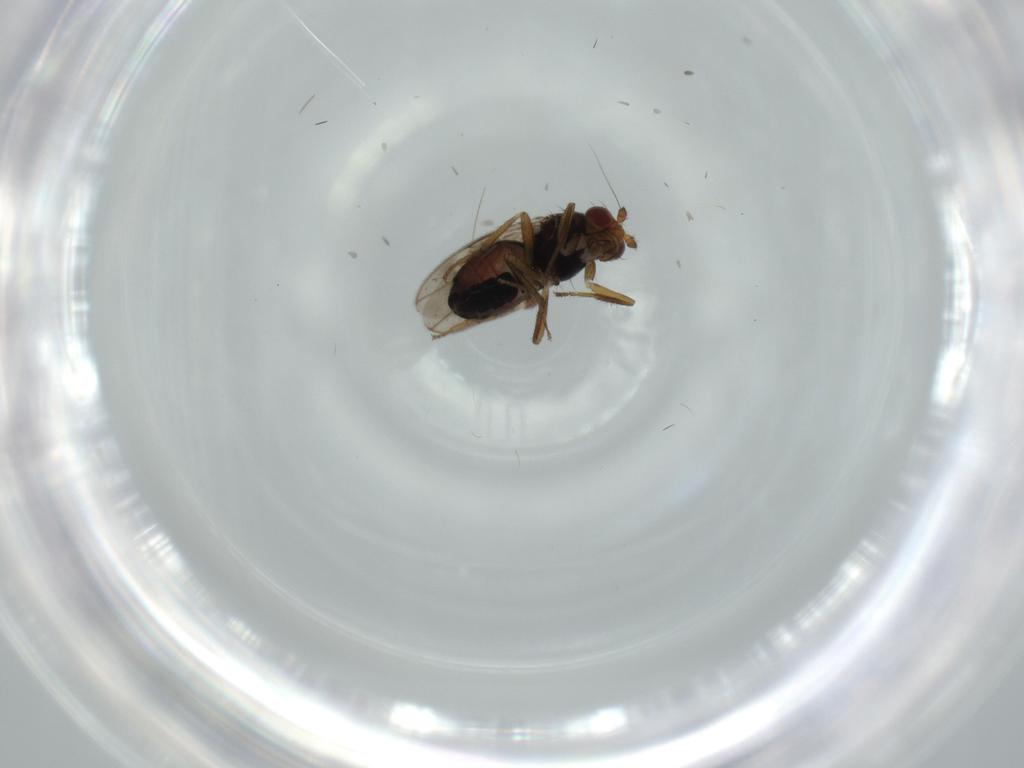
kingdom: Animalia
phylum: Arthropoda
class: Insecta
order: Diptera
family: Sphaeroceridae
